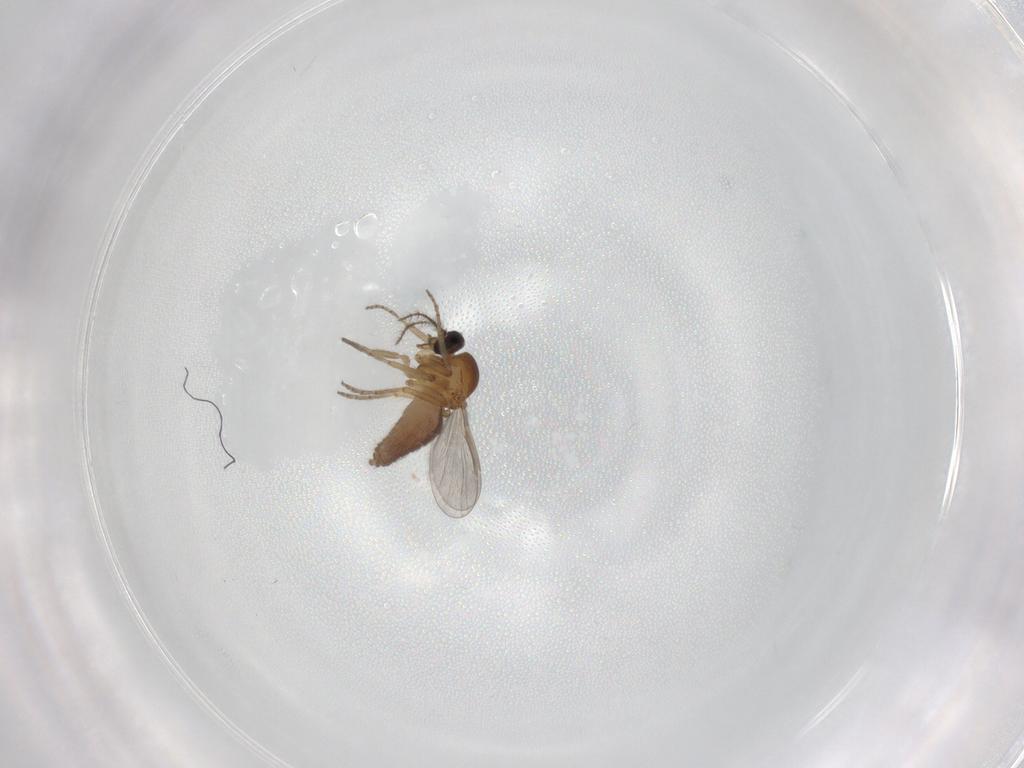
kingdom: Animalia
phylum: Arthropoda
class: Insecta
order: Diptera
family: Ceratopogonidae
